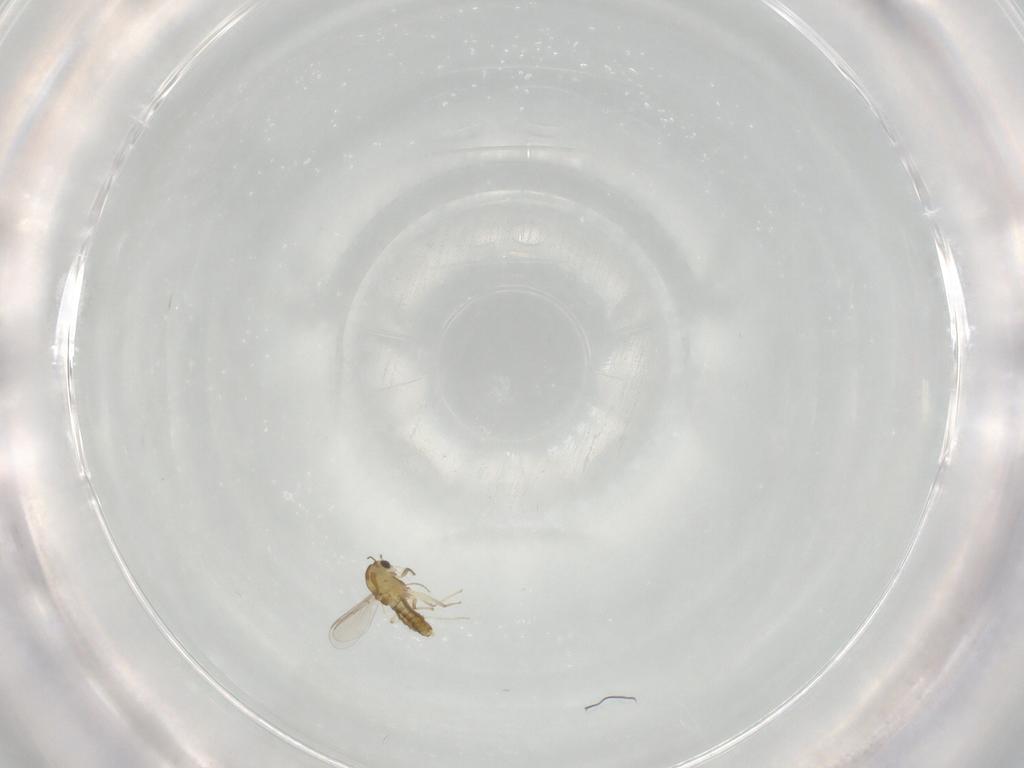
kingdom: Animalia
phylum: Arthropoda
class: Insecta
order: Diptera
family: Chironomidae
